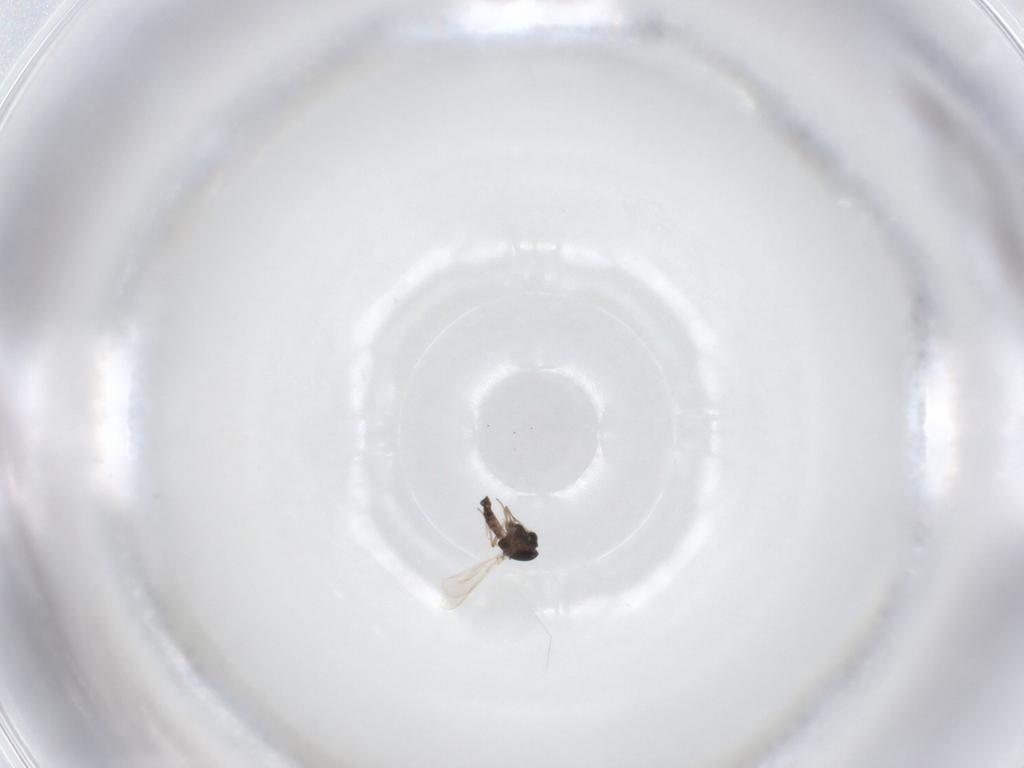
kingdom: Animalia
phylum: Arthropoda
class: Insecta
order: Diptera
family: Chironomidae
